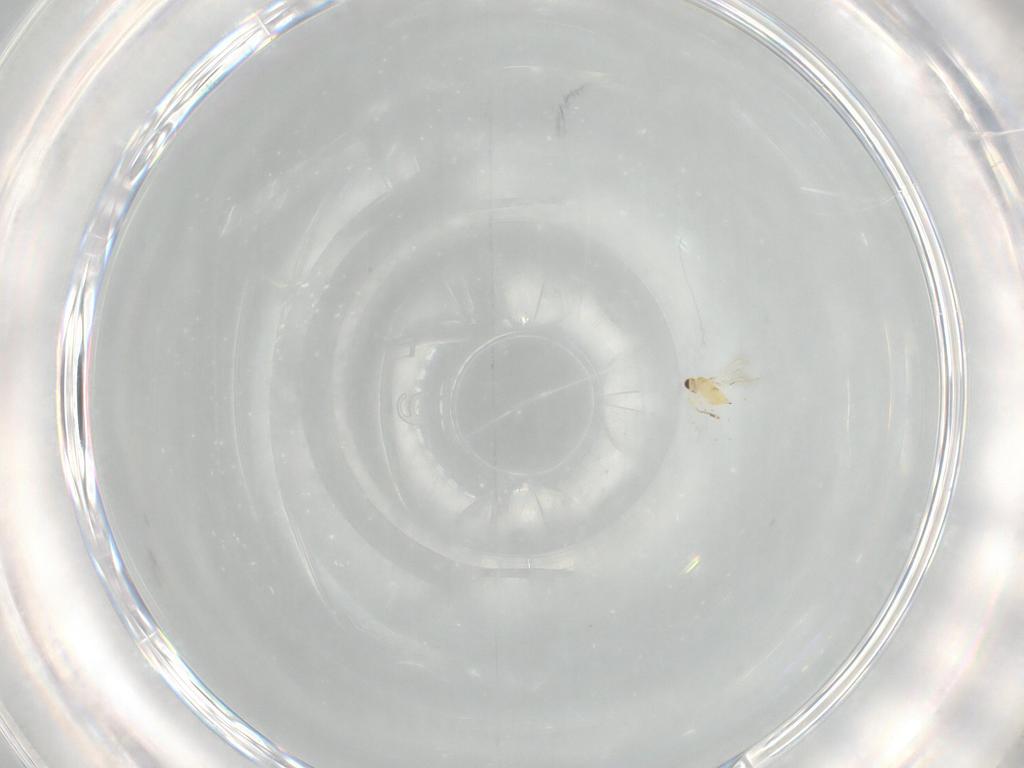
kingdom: Animalia
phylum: Arthropoda
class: Insecta
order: Hymenoptera
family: Mymaridae
